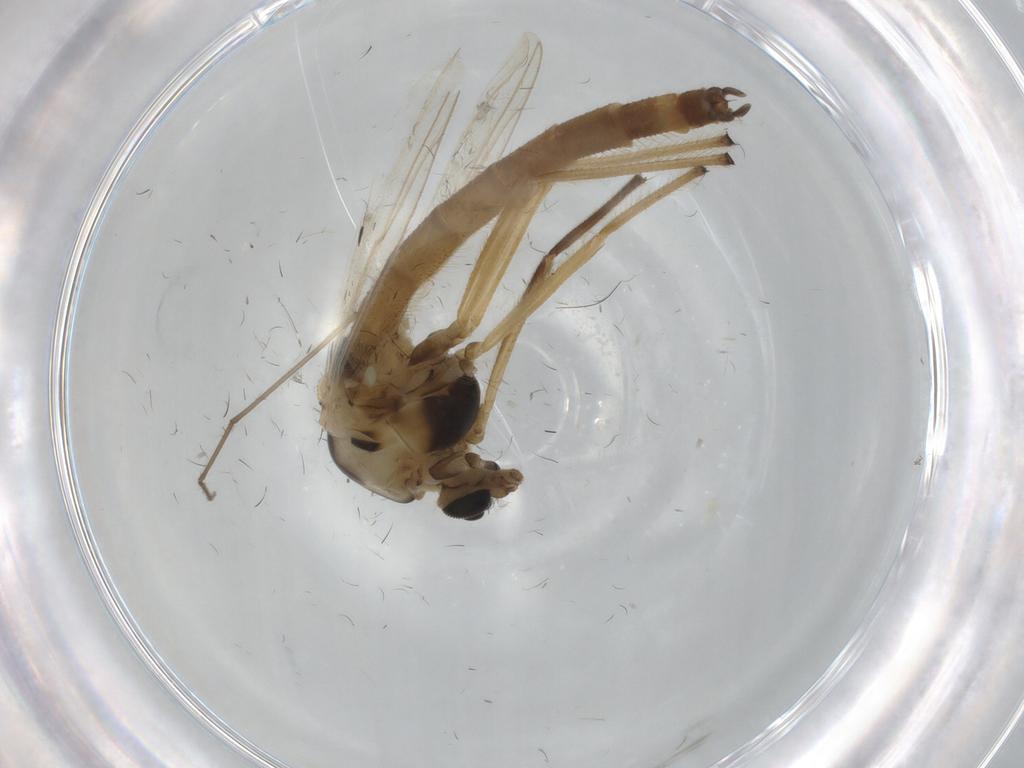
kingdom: Animalia
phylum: Arthropoda
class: Insecta
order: Diptera
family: Chironomidae
